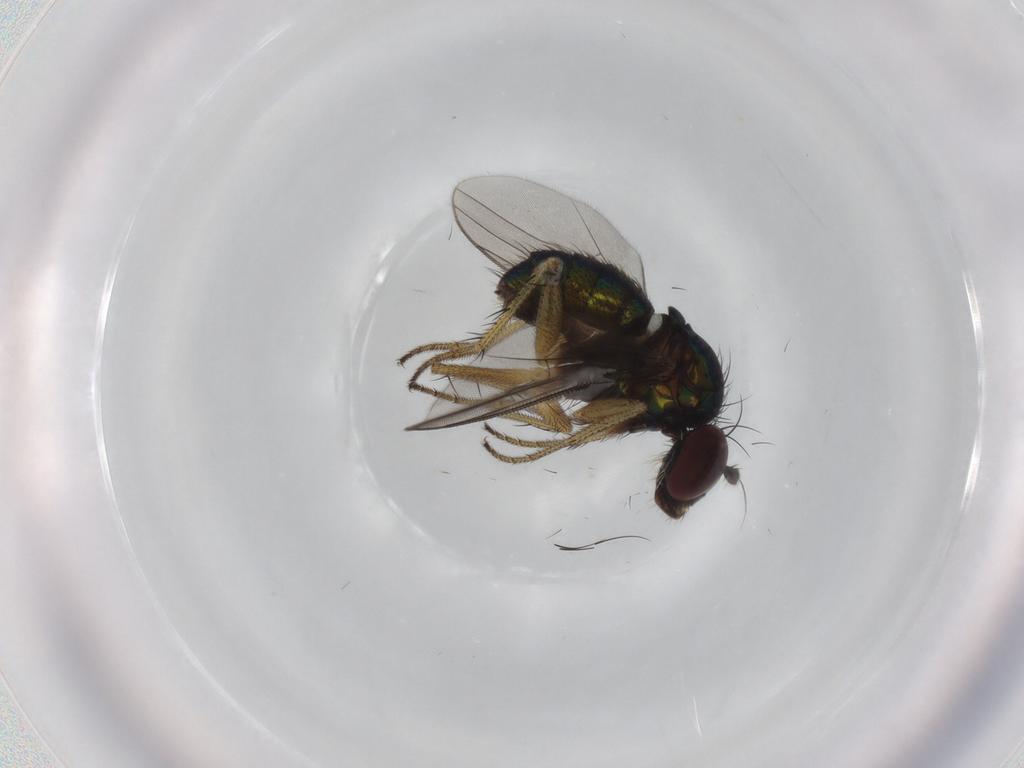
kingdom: Animalia
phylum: Arthropoda
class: Insecta
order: Diptera
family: Dolichopodidae
